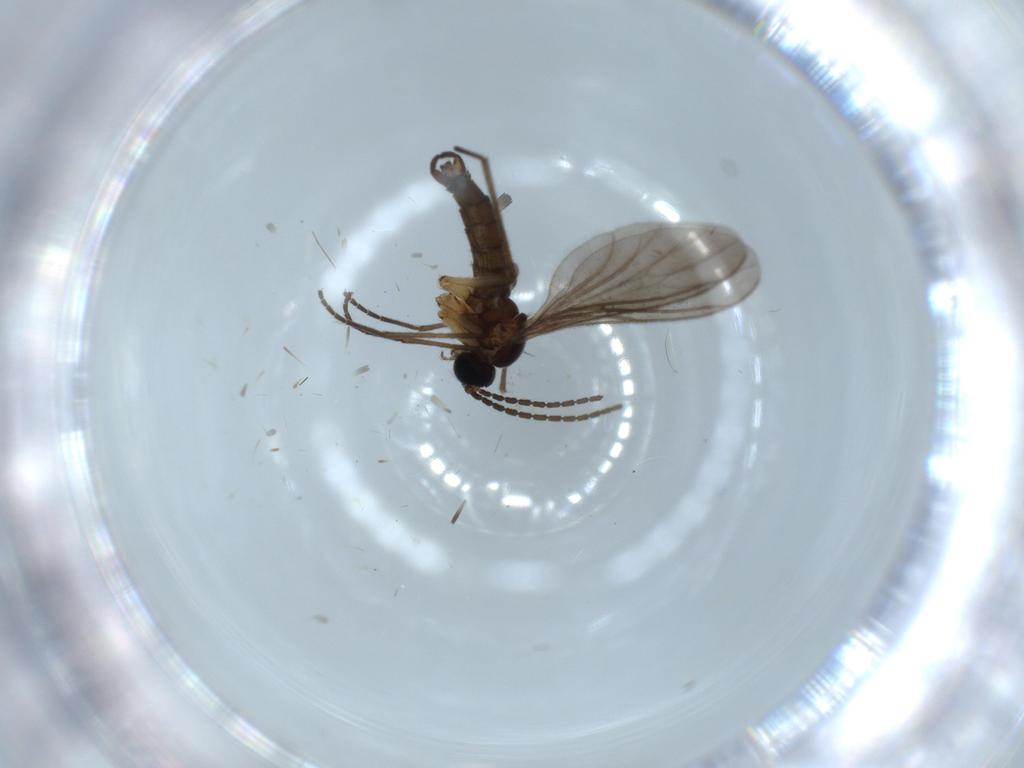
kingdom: Animalia
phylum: Arthropoda
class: Insecta
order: Diptera
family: Sciaridae
